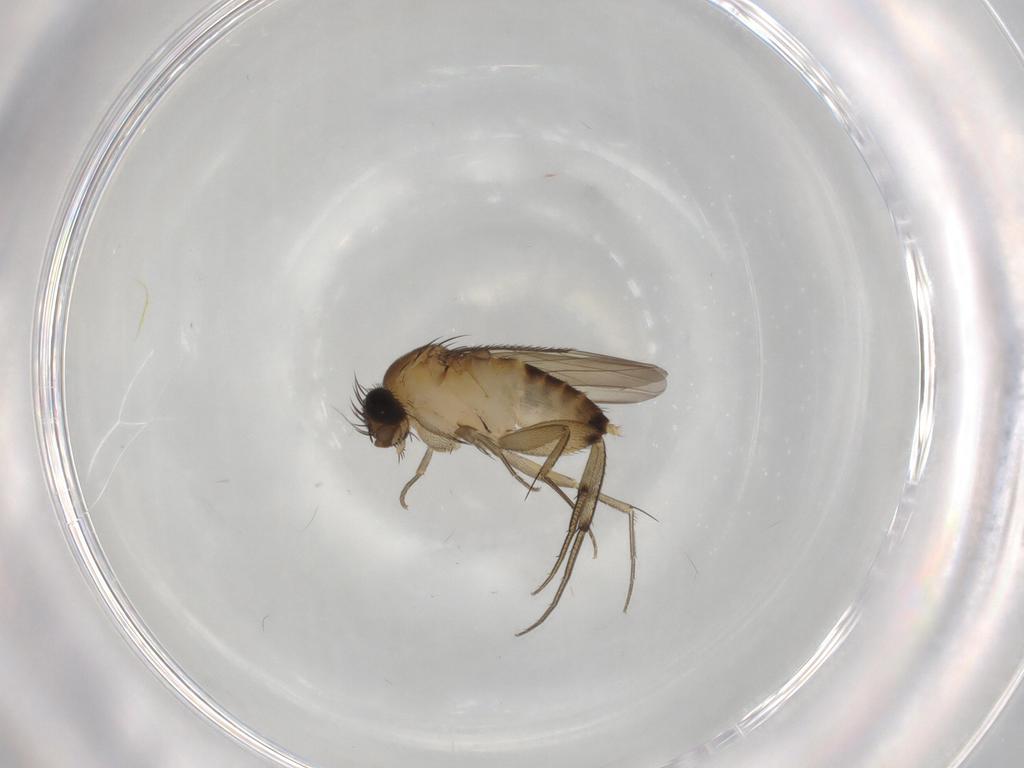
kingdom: Animalia
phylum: Arthropoda
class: Insecta
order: Diptera
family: Phoridae
